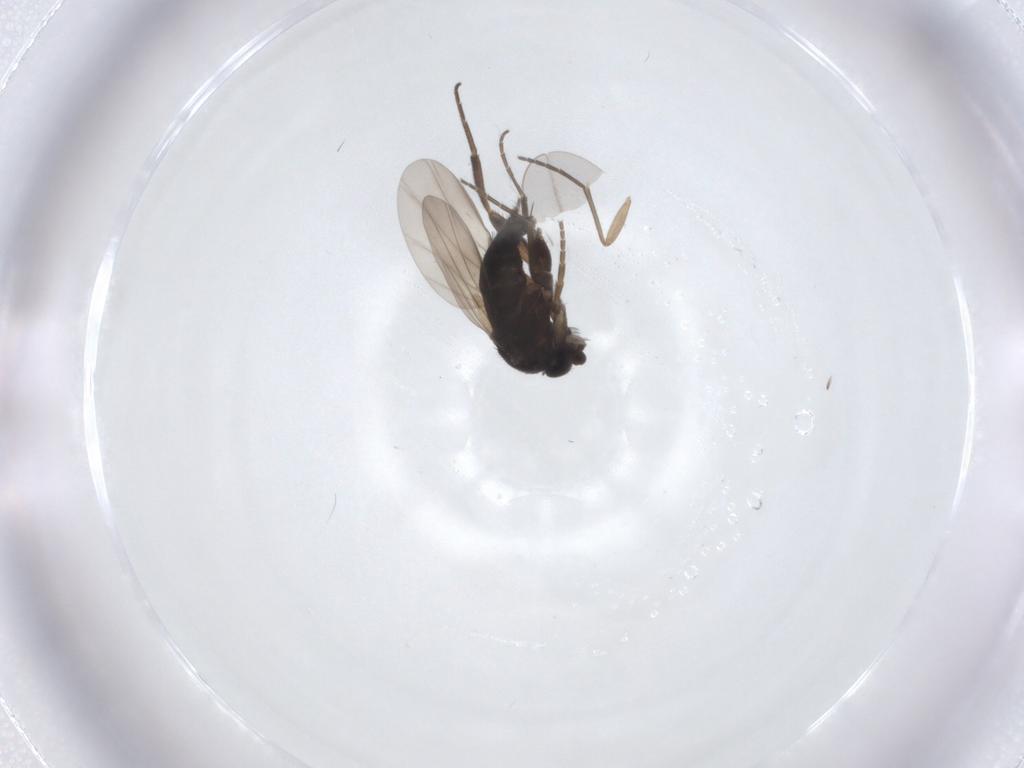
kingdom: Animalia
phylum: Arthropoda
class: Insecta
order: Diptera
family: Phoridae
